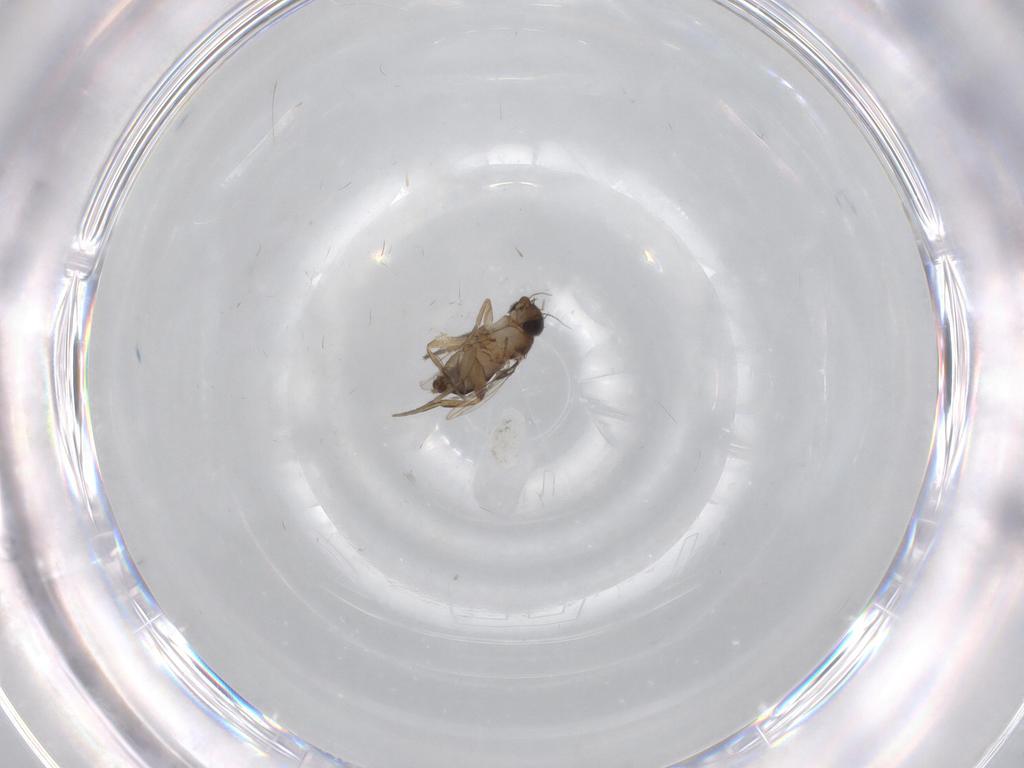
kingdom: Animalia
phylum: Arthropoda
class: Insecta
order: Diptera
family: Cecidomyiidae
